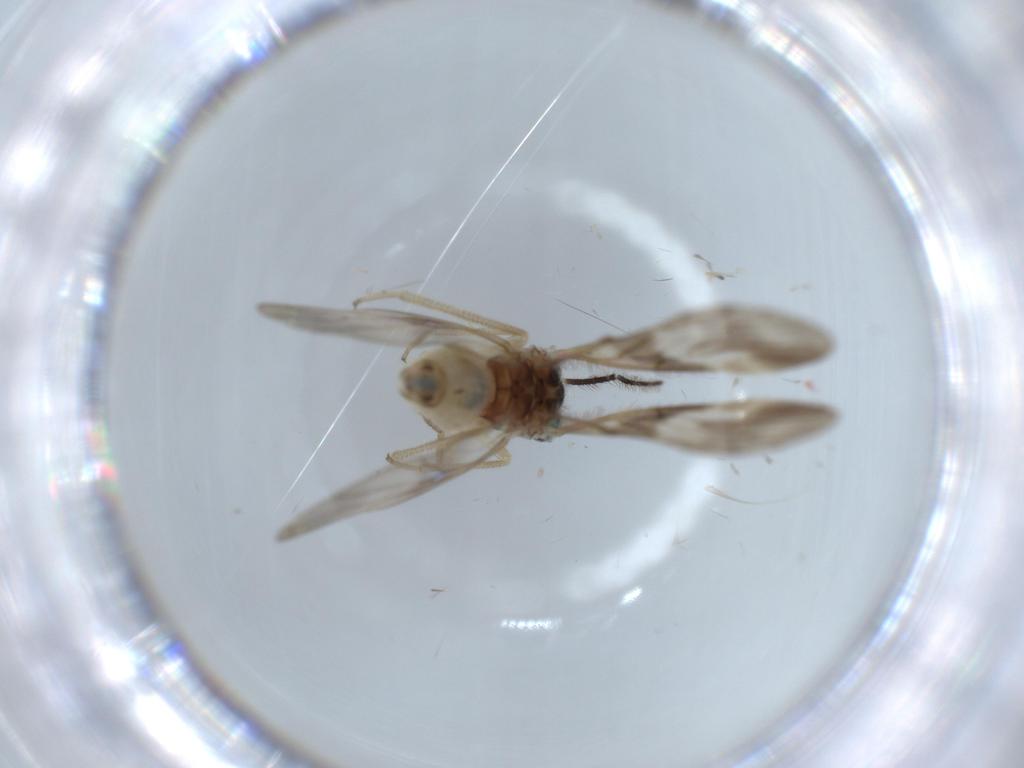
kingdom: Animalia
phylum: Arthropoda
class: Insecta
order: Psocodea
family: Amphipsocidae
